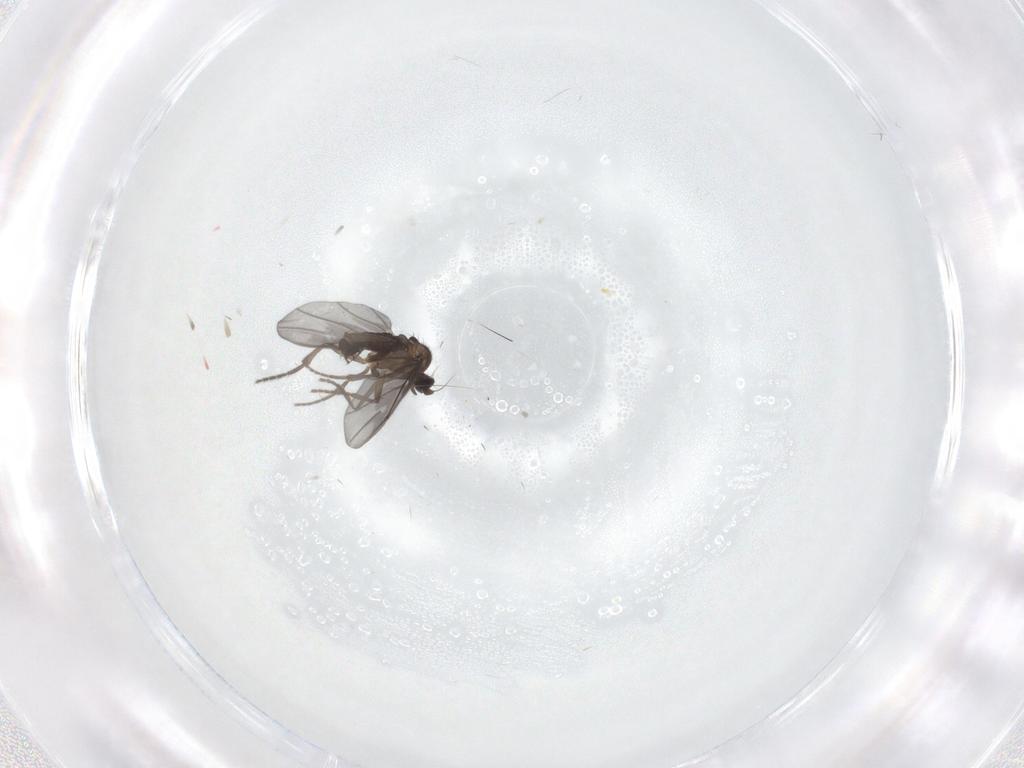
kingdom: Animalia
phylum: Arthropoda
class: Insecta
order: Diptera
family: Phoridae
